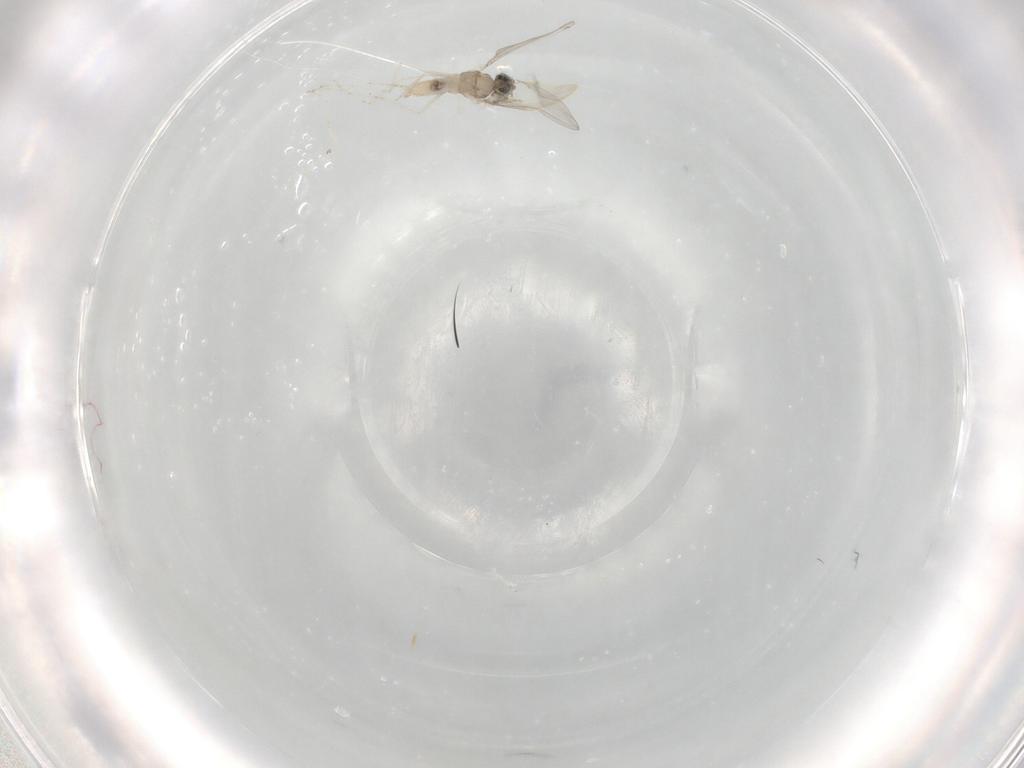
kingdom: Animalia
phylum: Arthropoda
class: Insecta
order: Diptera
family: Cecidomyiidae
